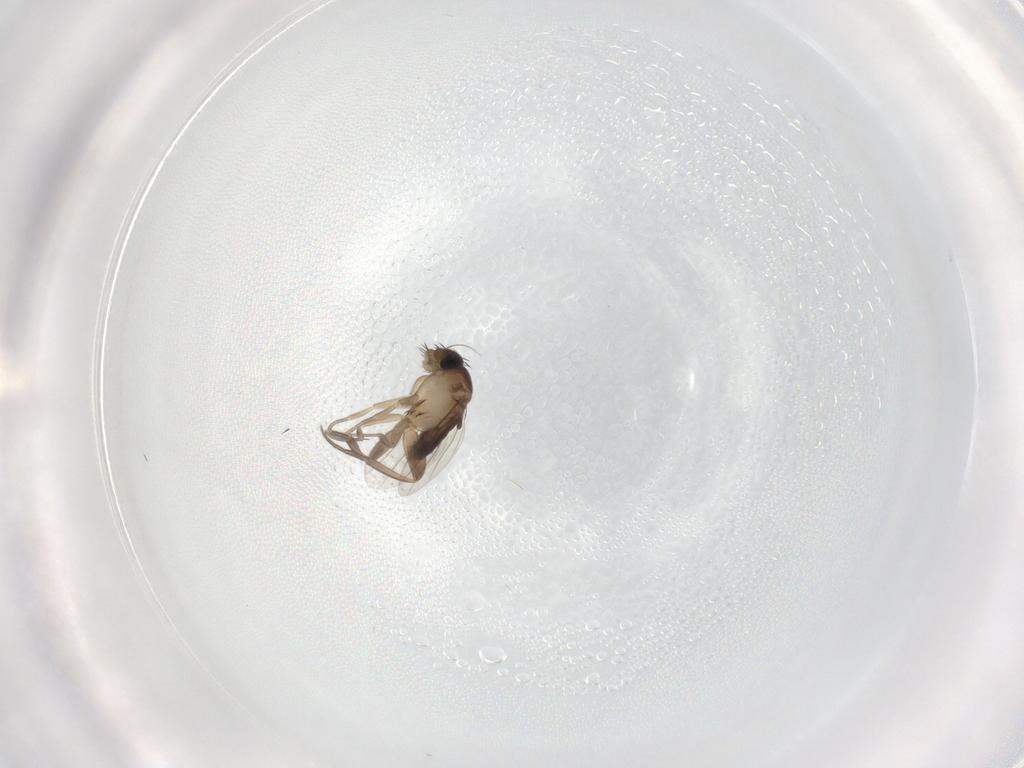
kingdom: Animalia
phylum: Arthropoda
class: Insecta
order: Diptera
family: Phoridae
